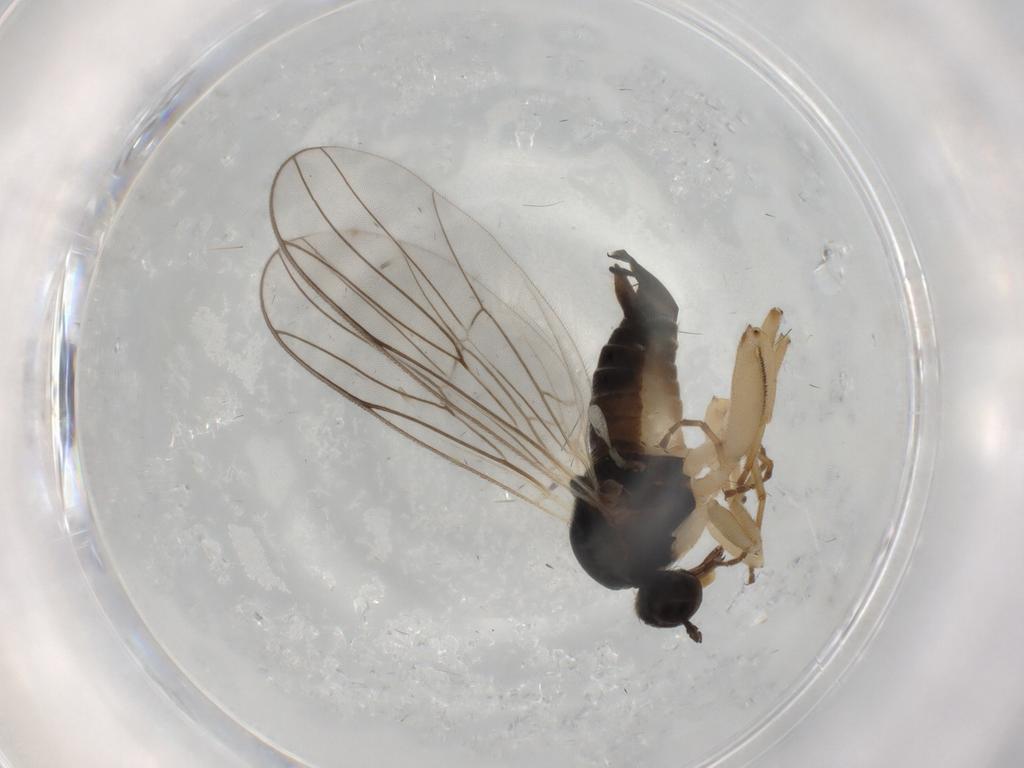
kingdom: Animalia
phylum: Arthropoda
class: Insecta
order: Diptera
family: Hybotidae
